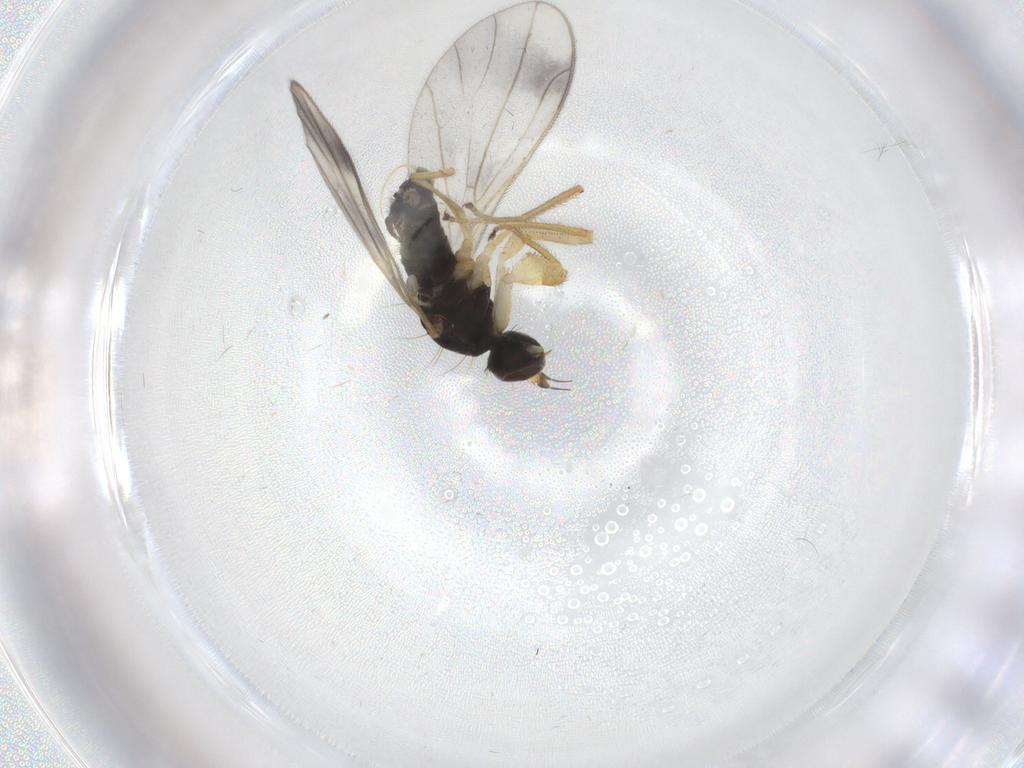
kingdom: Animalia
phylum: Arthropoda
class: Insecta
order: Diptera
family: Empididae
